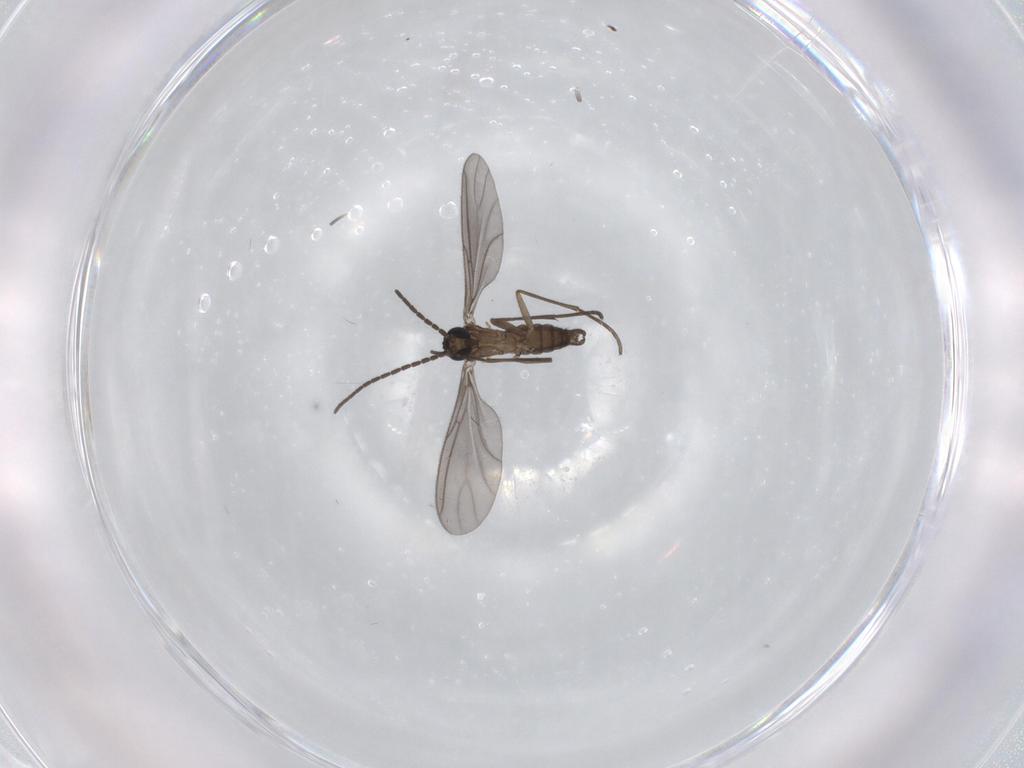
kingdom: Animalia
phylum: Arthropoda
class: Insecta
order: Diptera
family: Sciaridae
